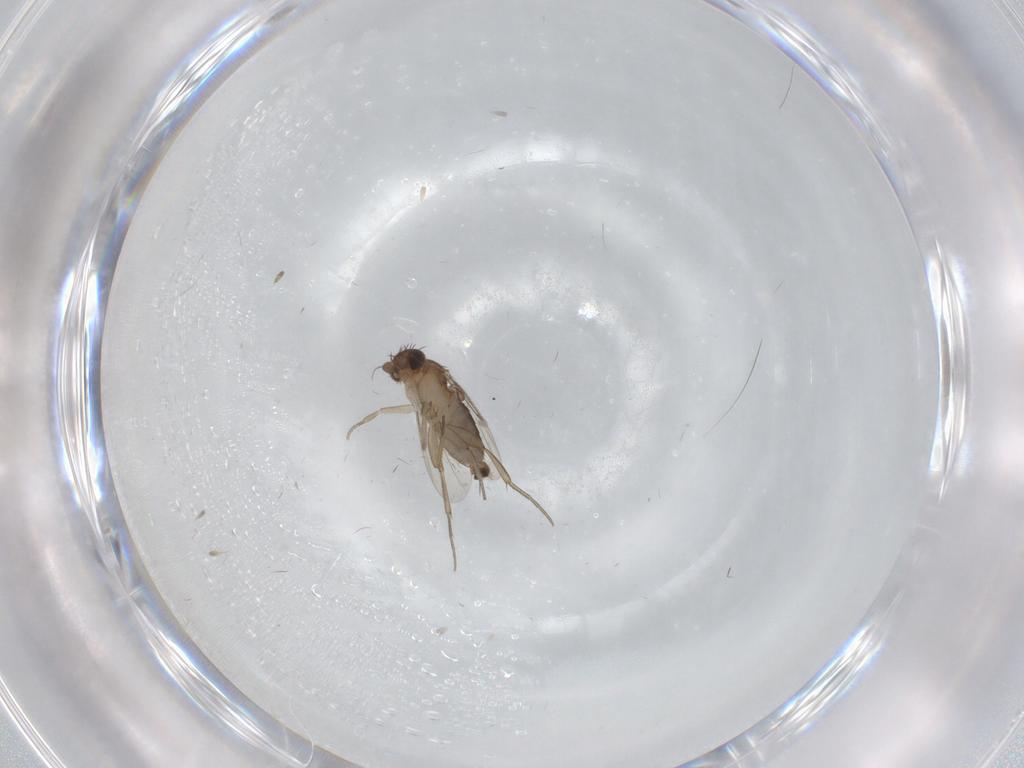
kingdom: Animalia
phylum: Arthropoda
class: Insecta
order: Diptera
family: Phoridae
